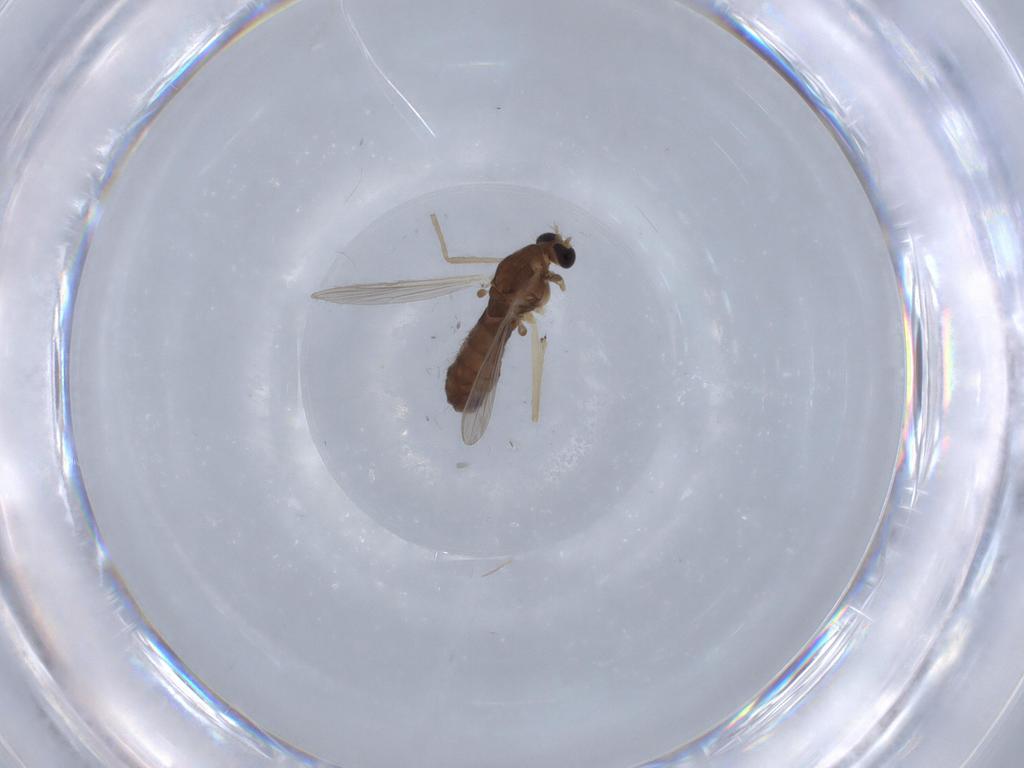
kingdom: Animalia
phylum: Arthropoda
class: Insecta
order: Diptera
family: Chironomidae
